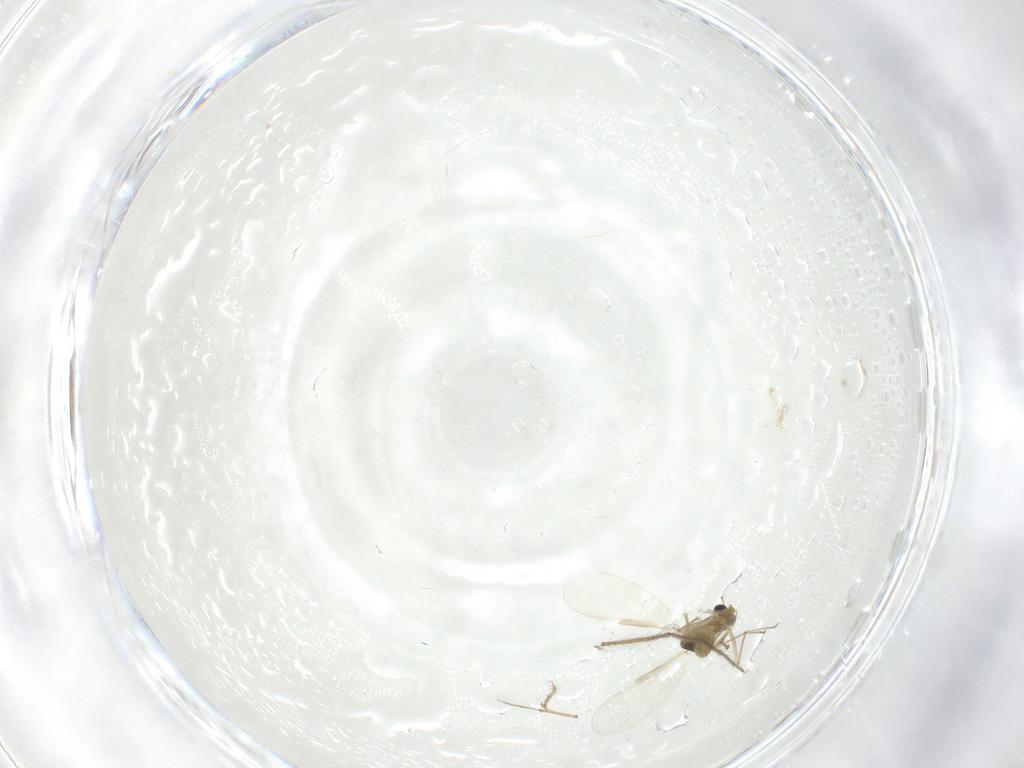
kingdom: Animalia
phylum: Arthropoda
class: Insecta
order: Diptera
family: Chironomidae
